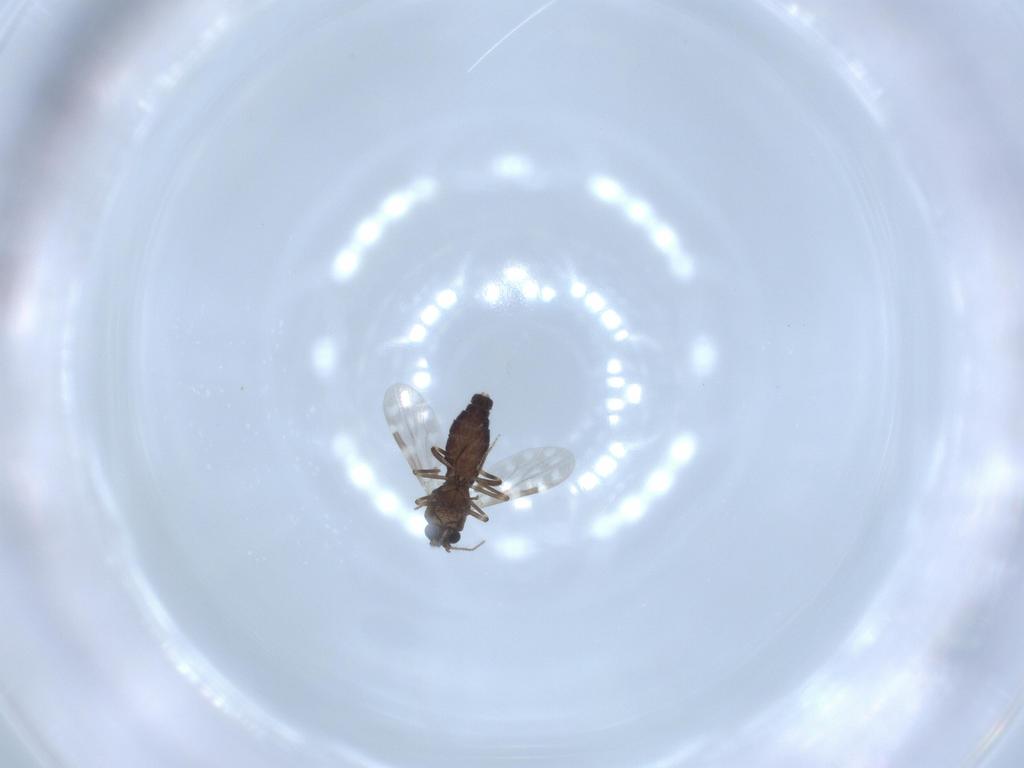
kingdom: Animalia
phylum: Arthropoda
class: Insecta
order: Diptera
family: Ceratopogonidae
